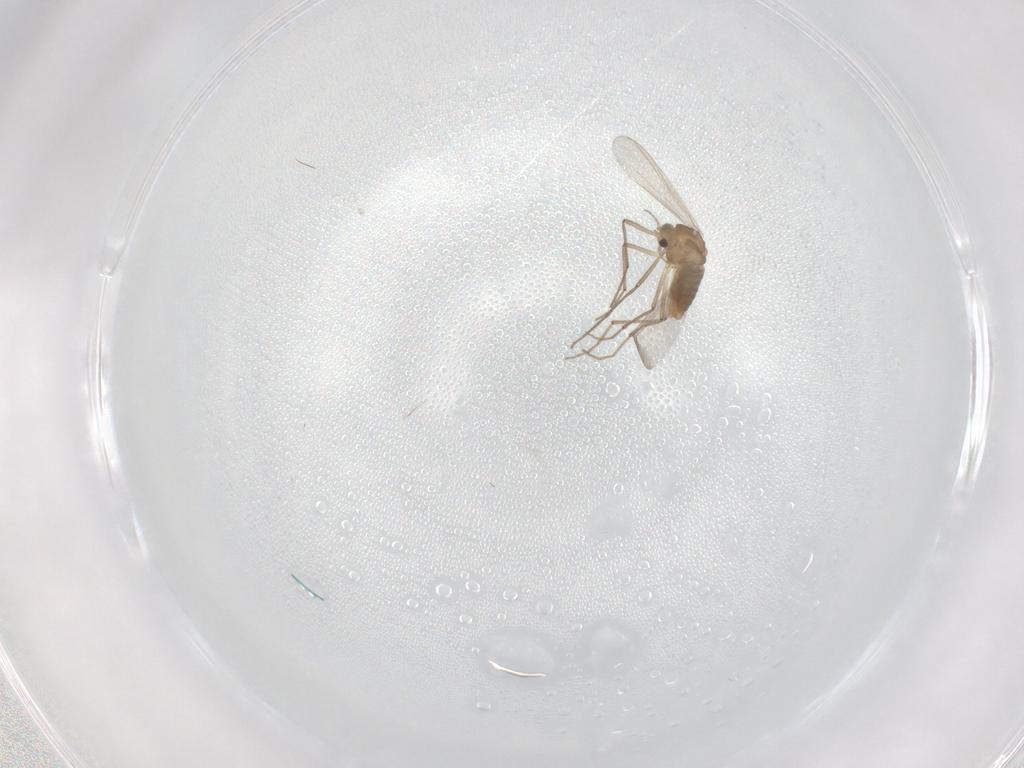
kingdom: Animalia
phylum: Arthropoda
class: Insecta
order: Diptera
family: Chironomidae
